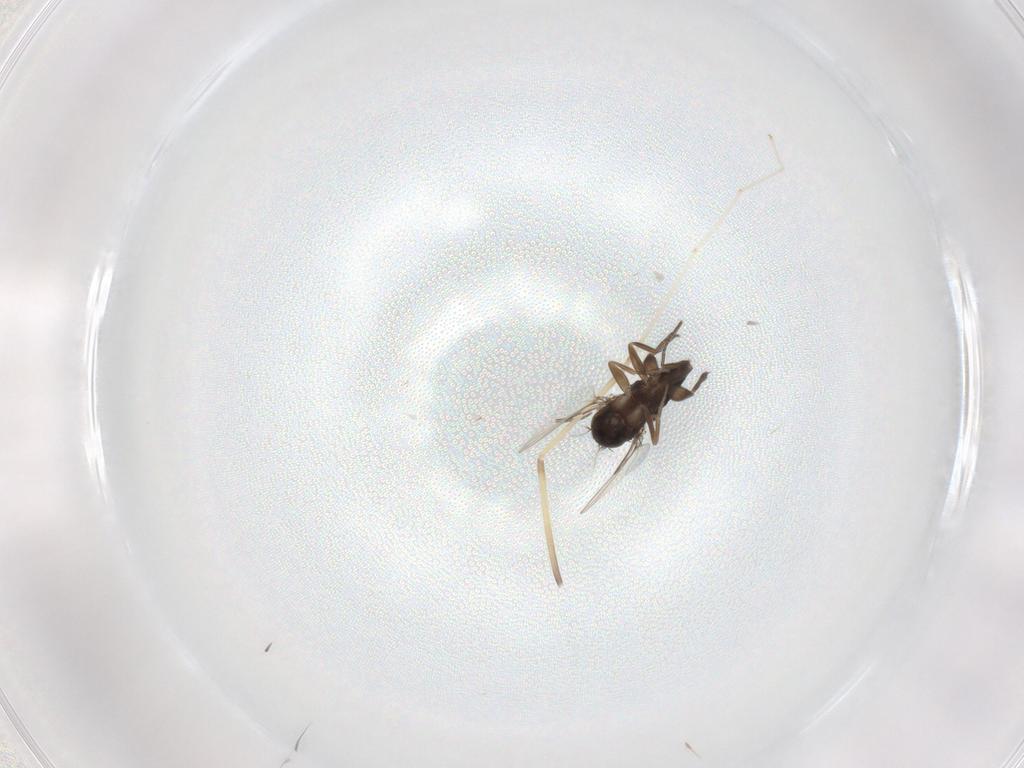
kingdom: Animalia
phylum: Arthropoda
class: Insecta
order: Diptera
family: Phoridae
